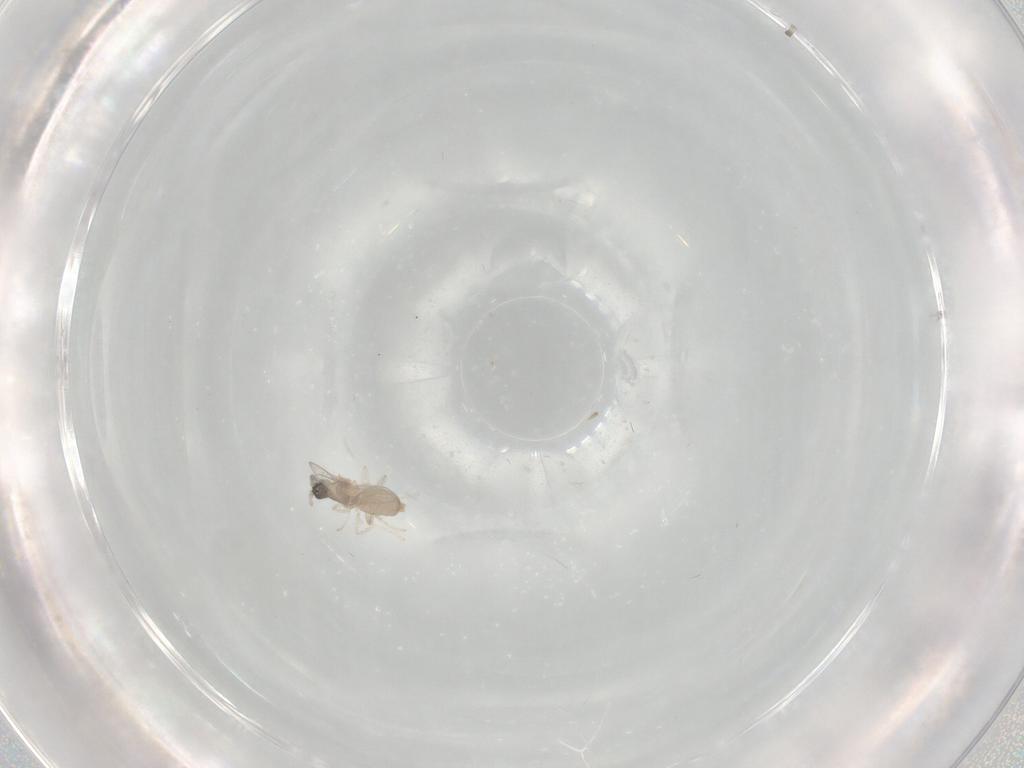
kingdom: Animalia
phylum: Arthropoda
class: Insecta
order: Diptera
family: Cecidomyiidae
